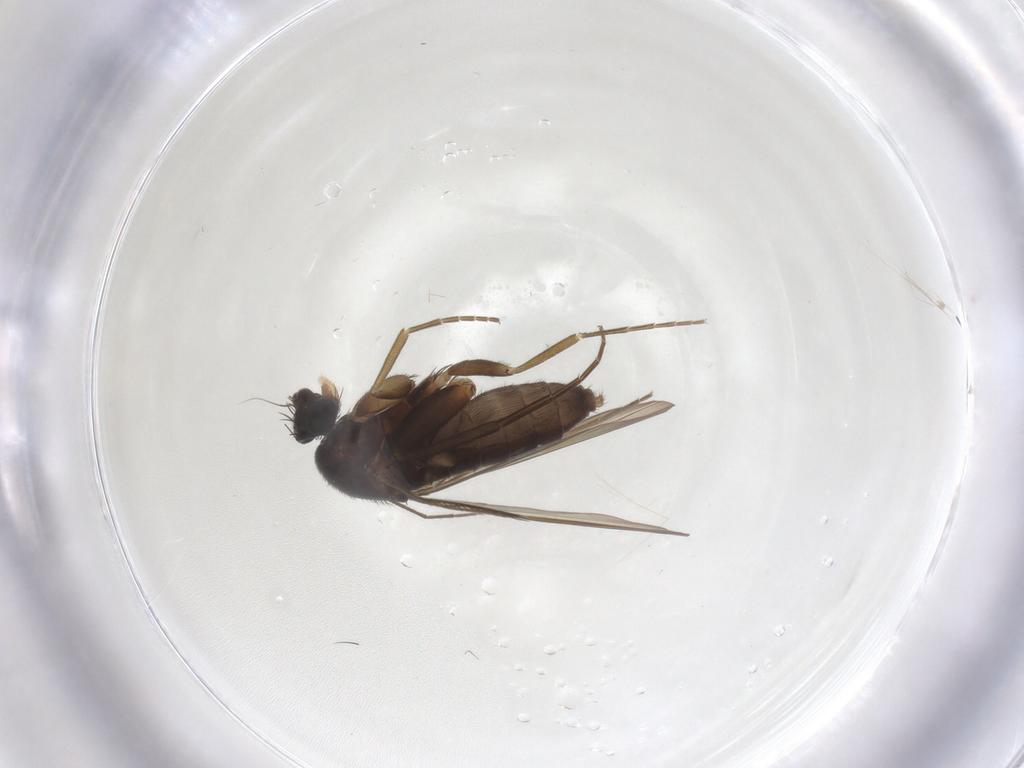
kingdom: Animalia
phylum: Arthropoda
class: Insecta
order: Diptera
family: Phoridae
